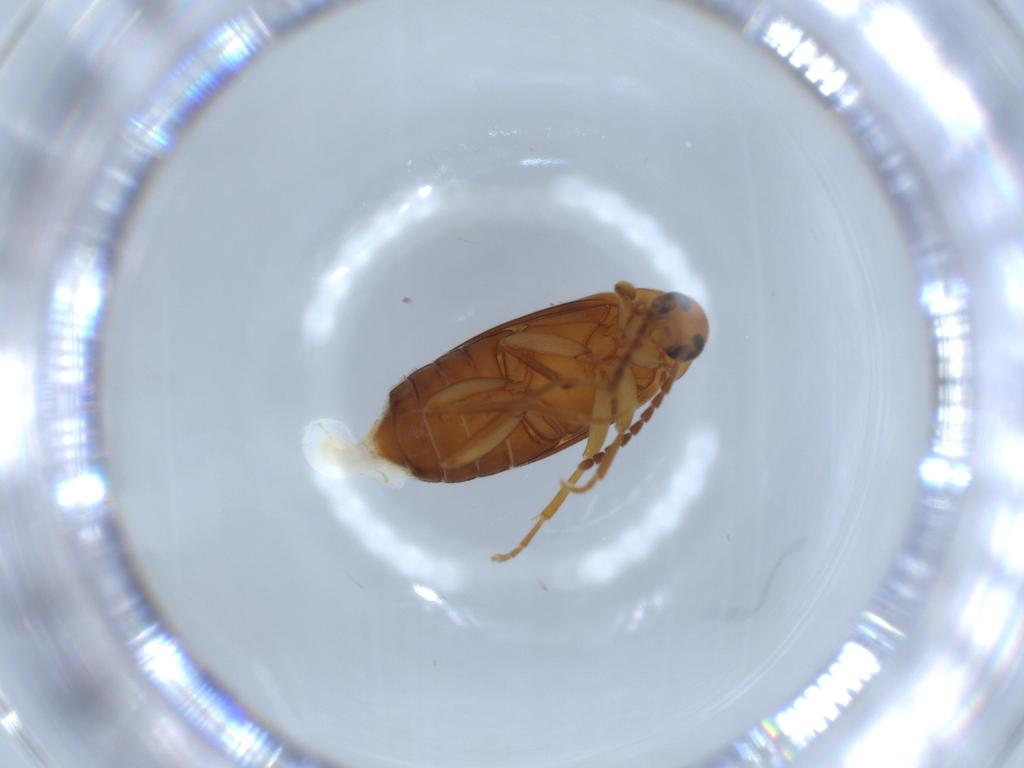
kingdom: Animalia
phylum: Arthropoda
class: Insecta
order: Coleoptera
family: Scraptiidae
